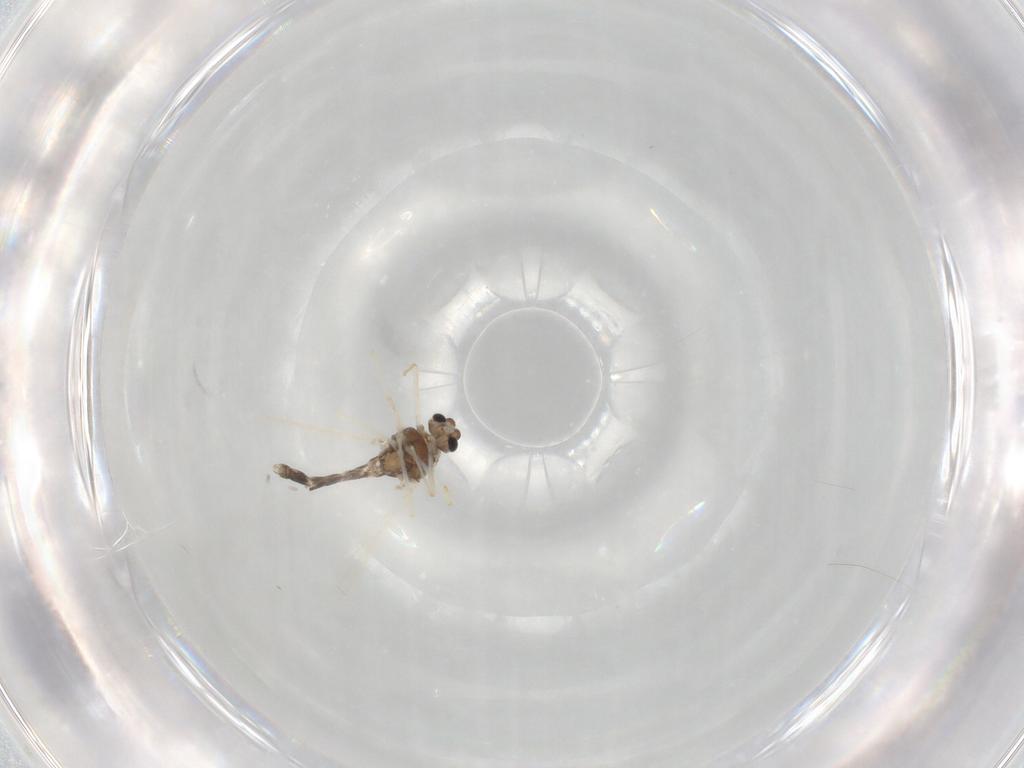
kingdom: Animalia
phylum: Arthropoda
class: Insecta
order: Diptera
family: Chironomidae
